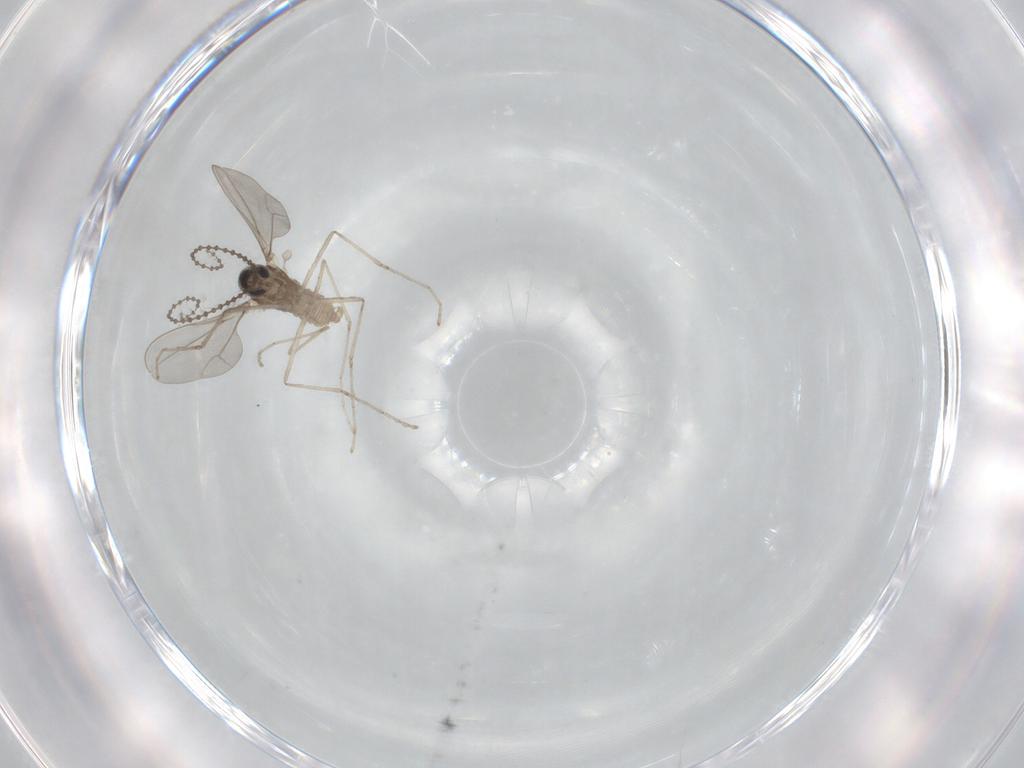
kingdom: Animalia
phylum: Arthropoda
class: Insecta
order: Diptera
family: Cecidomyiidae
